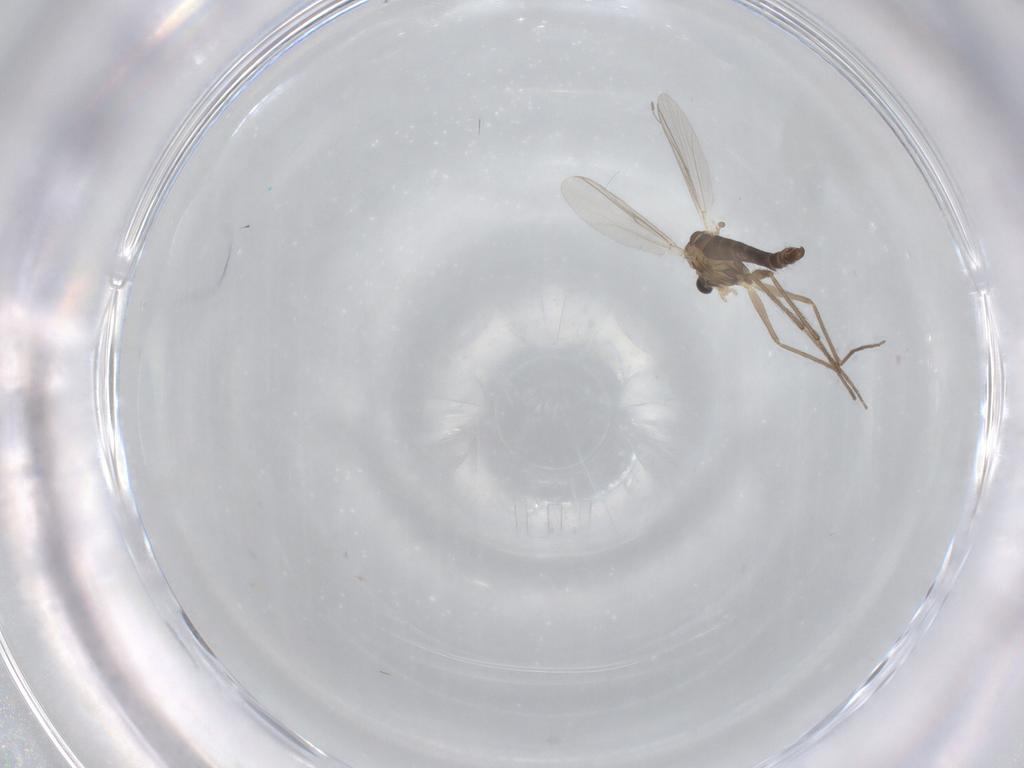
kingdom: Animalia
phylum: Arthropoda
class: Insecta
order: Diptera
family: Chironomidae
